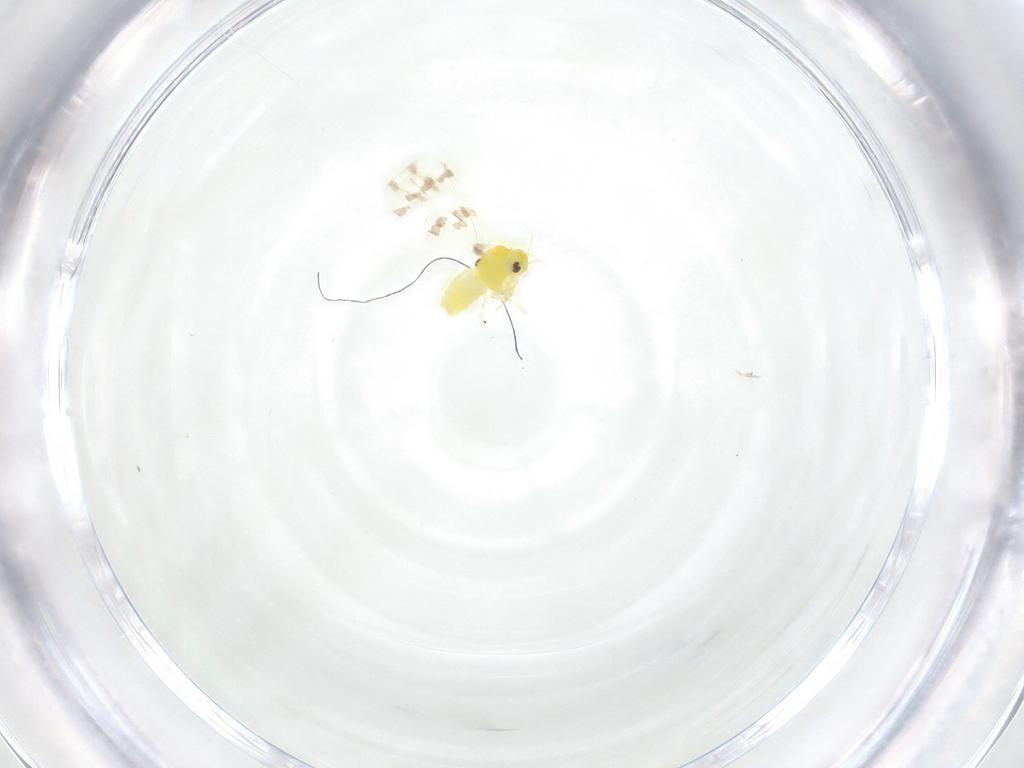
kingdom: Animalia
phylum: Arthropoda
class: Insecta
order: Hemiptera
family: Aleyrodidae
